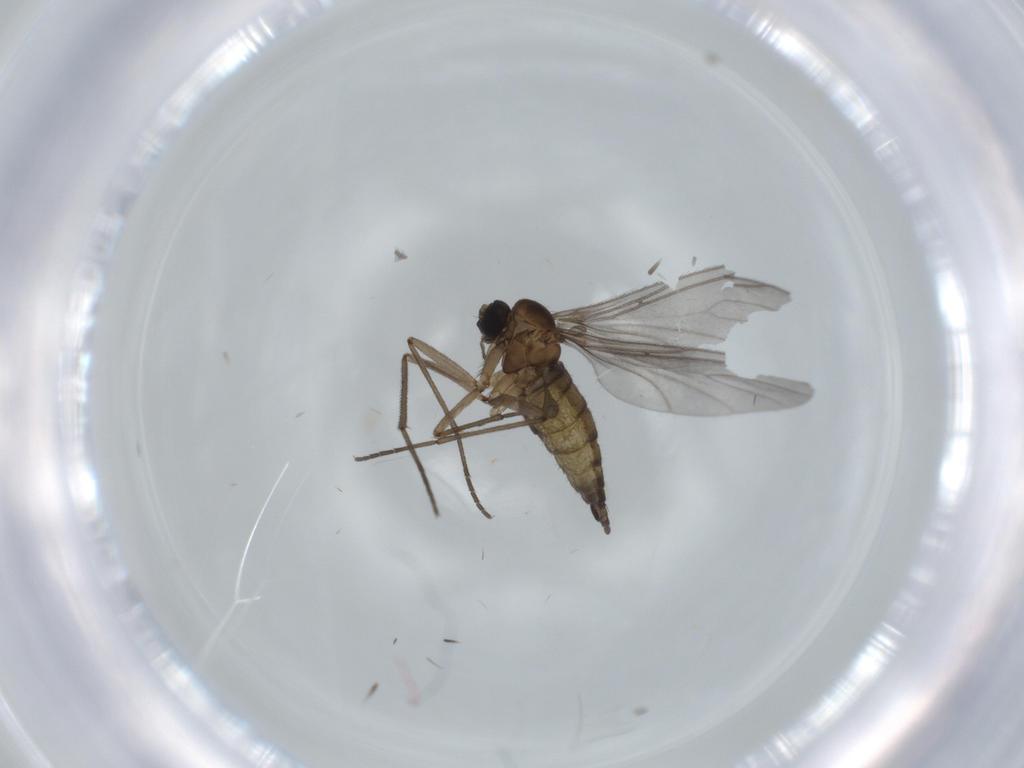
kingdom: Animalia
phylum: Arthropoda
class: Insecta
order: Diptera
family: Sciaridae
